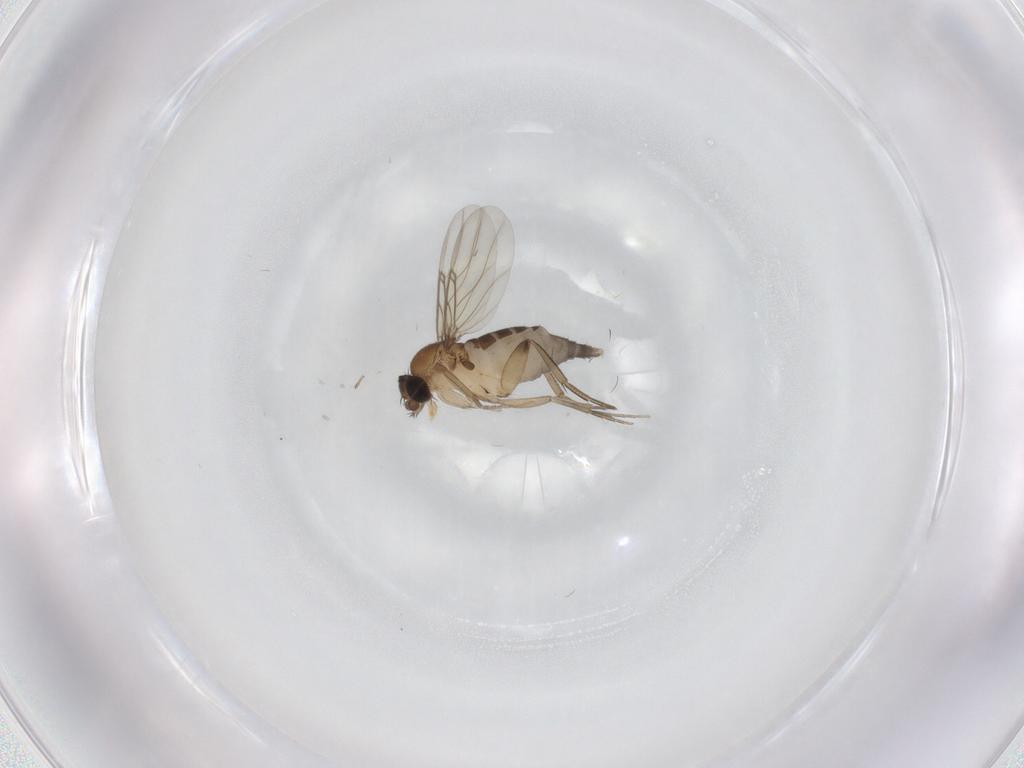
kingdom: Animalia
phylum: Arthropoda
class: Insecta
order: Diptera
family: Phoridae
